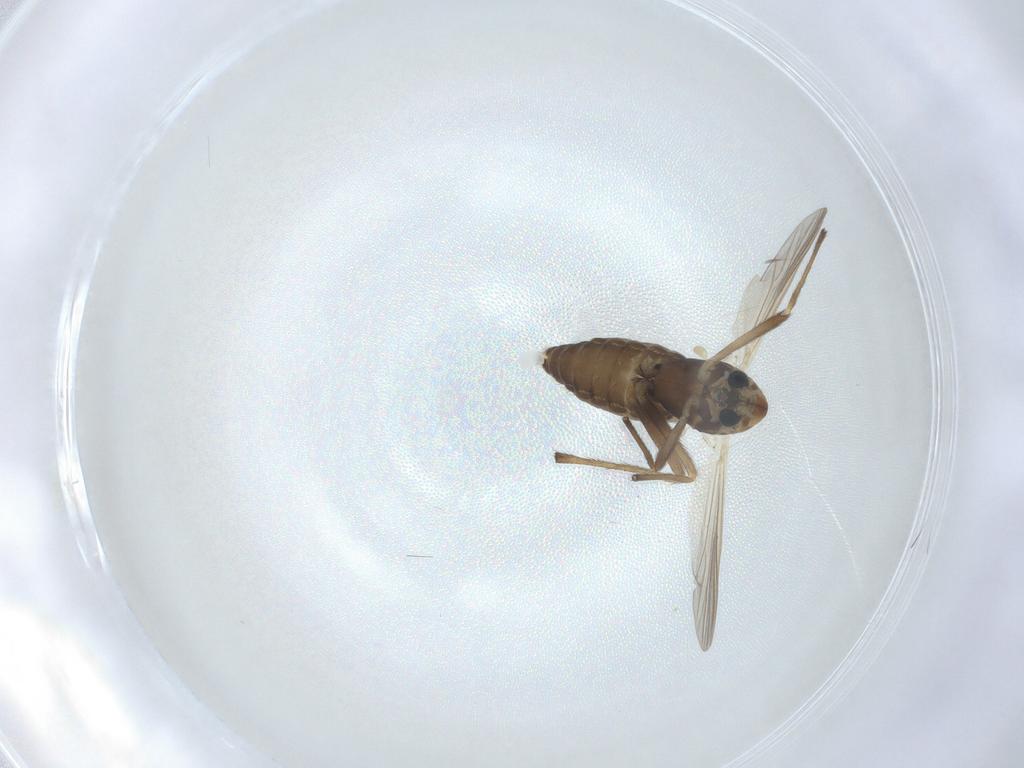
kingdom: Animalia
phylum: Arthropoda
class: Insecta
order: Diptera
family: Chironomidae
